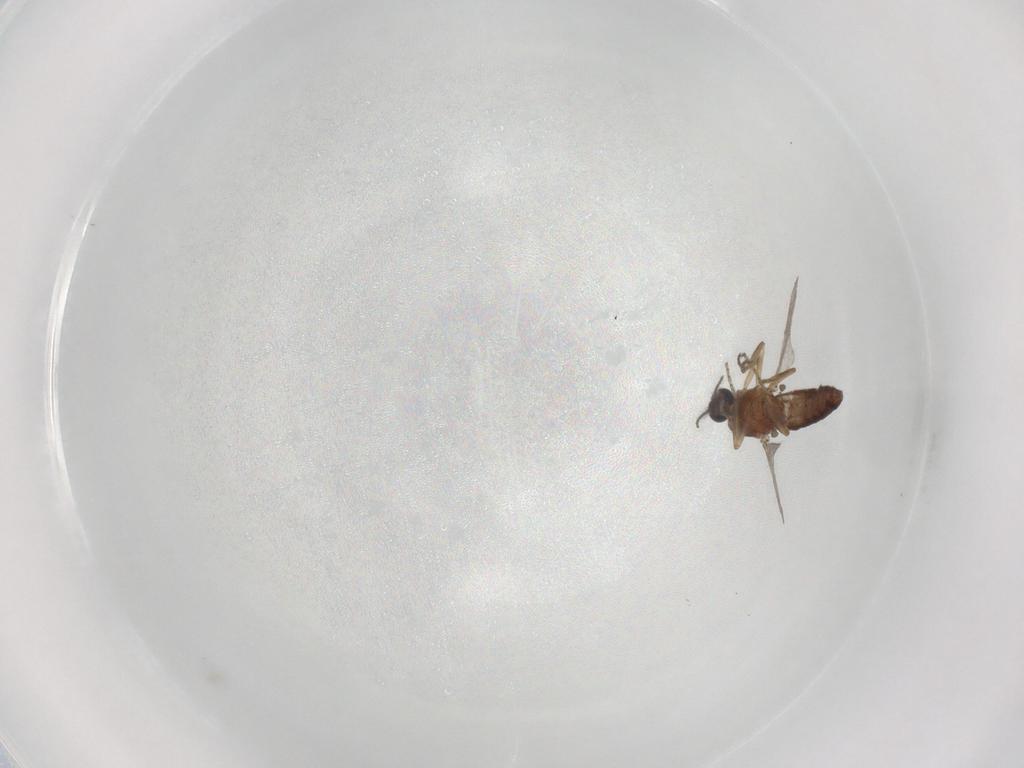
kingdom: Animalia
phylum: Arthropoda
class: Insecta
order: Diptera
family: Ceratopogonidae
